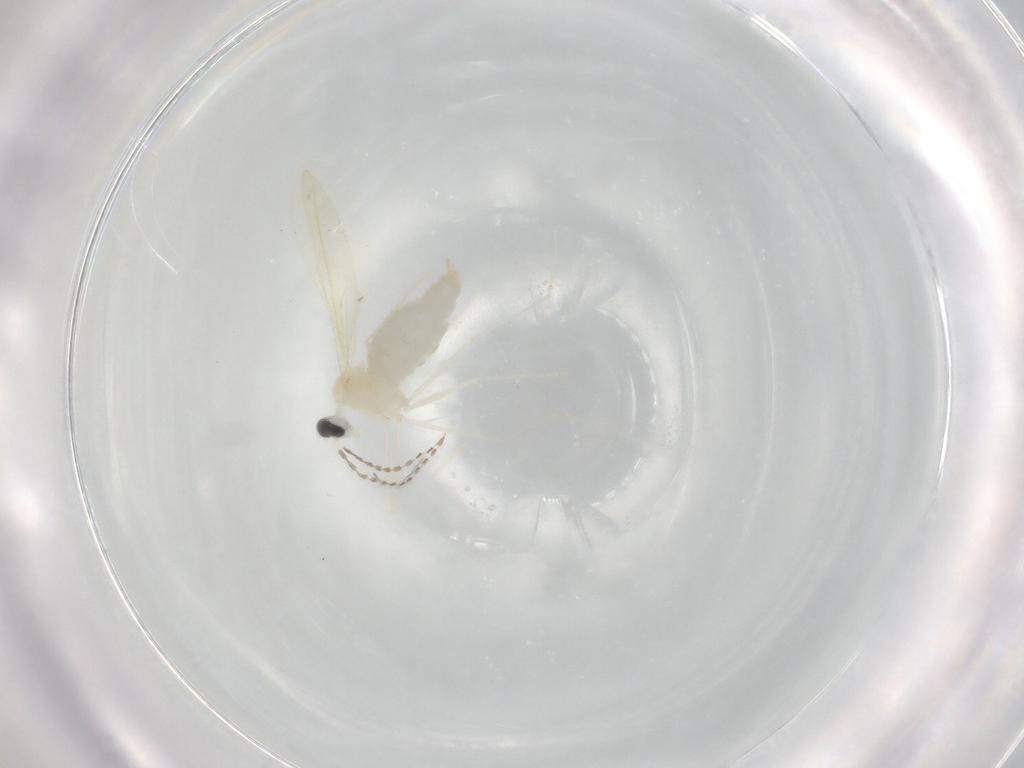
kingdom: Animalia
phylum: Arthropoda
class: Insecta
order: Diptera
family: Cecidomyiidae
